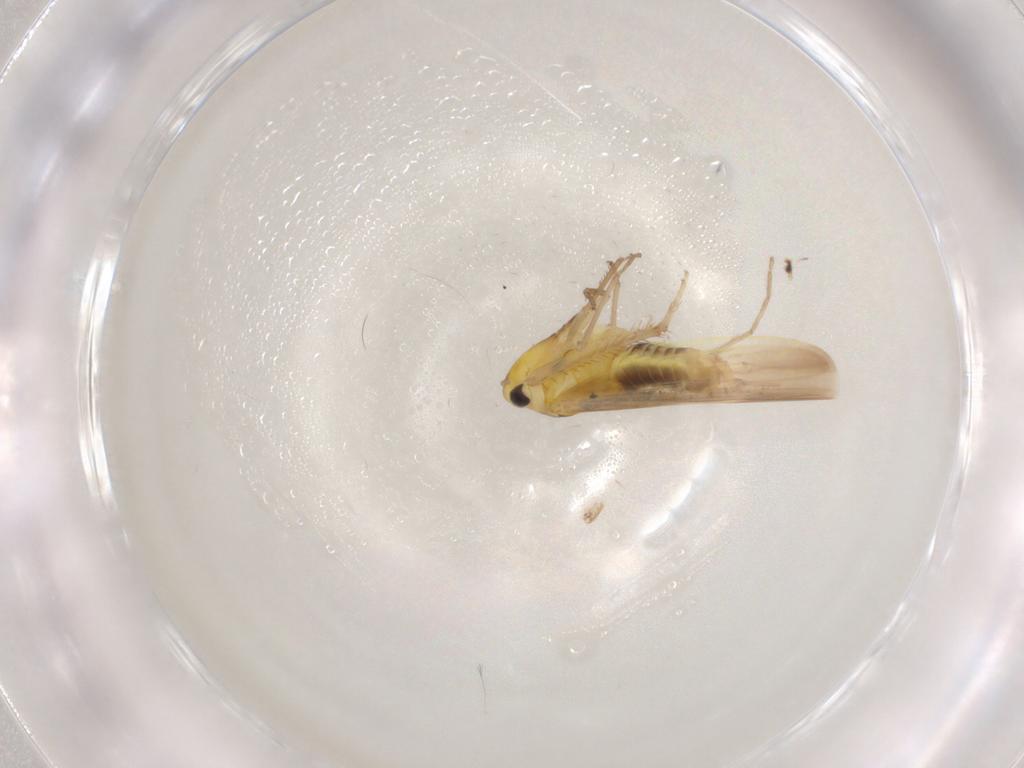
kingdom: Animalia
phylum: Arthropoda
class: Insecta
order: Hemiptera
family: Cicadellidae
